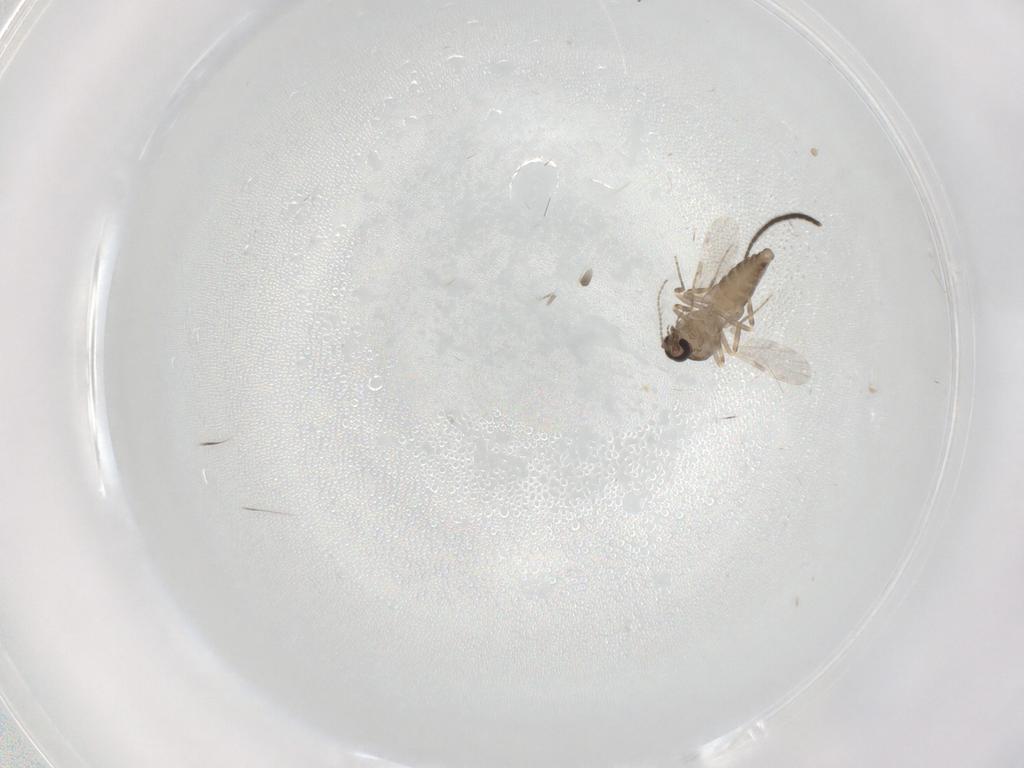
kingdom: Animalia
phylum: Arthropoda
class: Insecta
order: Diptera
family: Ceratopogonidae
